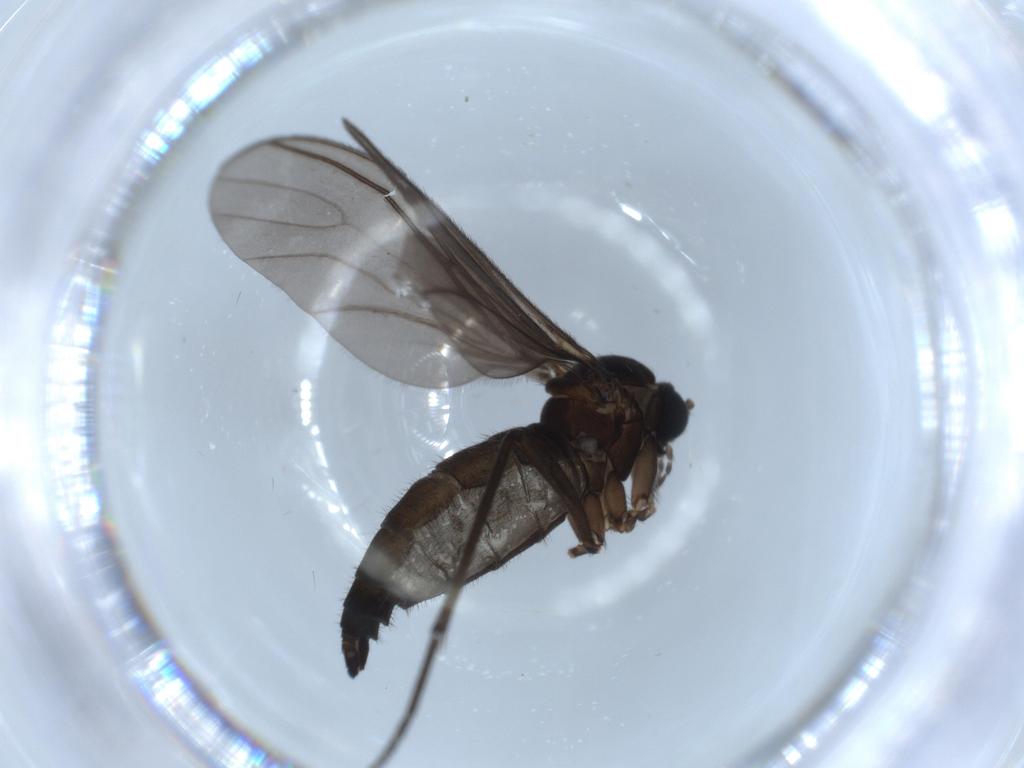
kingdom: Animalia
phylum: Arthropoda
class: Insecta
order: Diptera
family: Sciaridae
